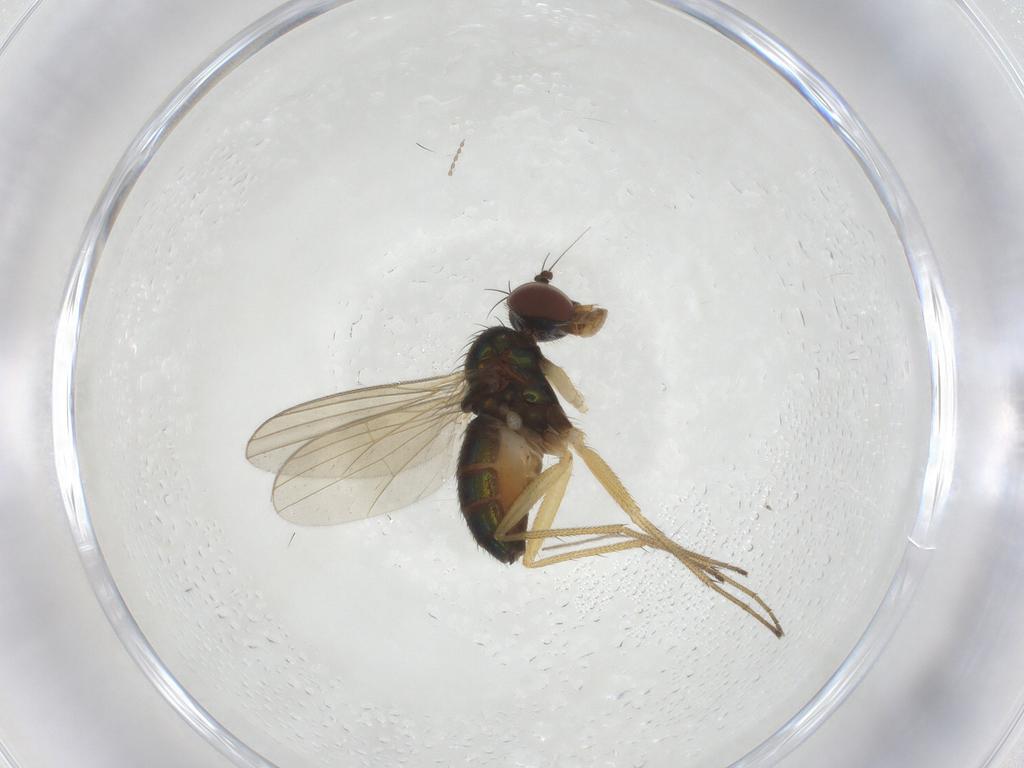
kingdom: Animalia
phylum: Arthropoda
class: Insecta
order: Diptera
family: Dolichopodidae
